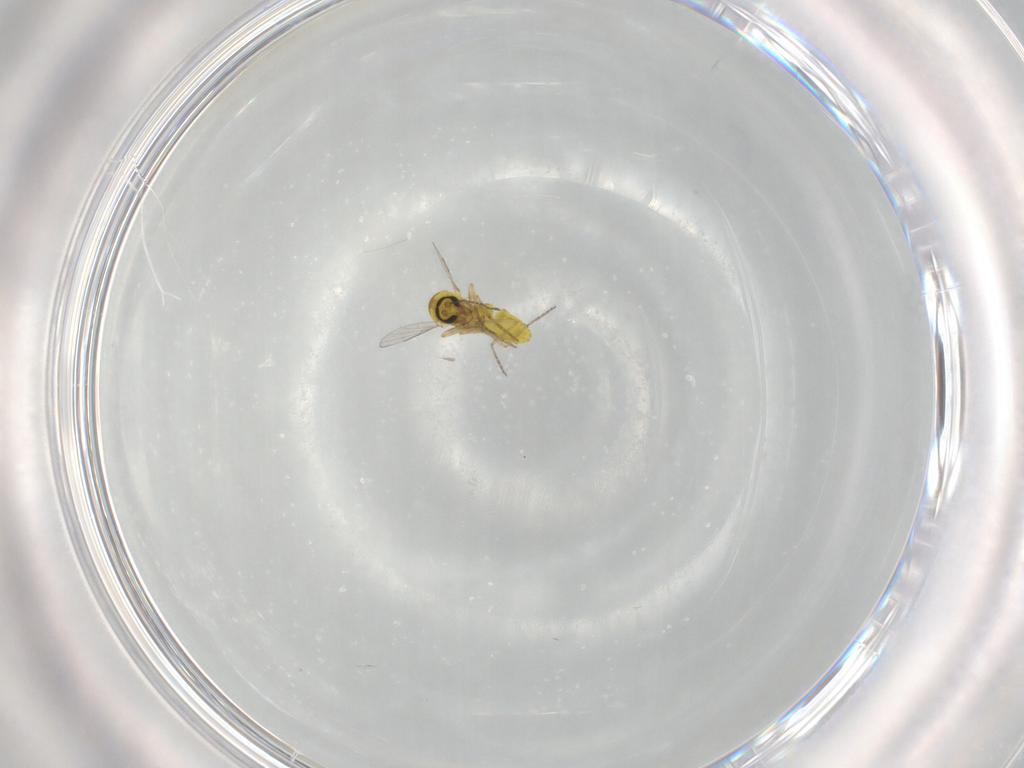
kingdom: Animalia
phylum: Arthropoda
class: Insecta
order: Diptera
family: Ceratopogonidae
